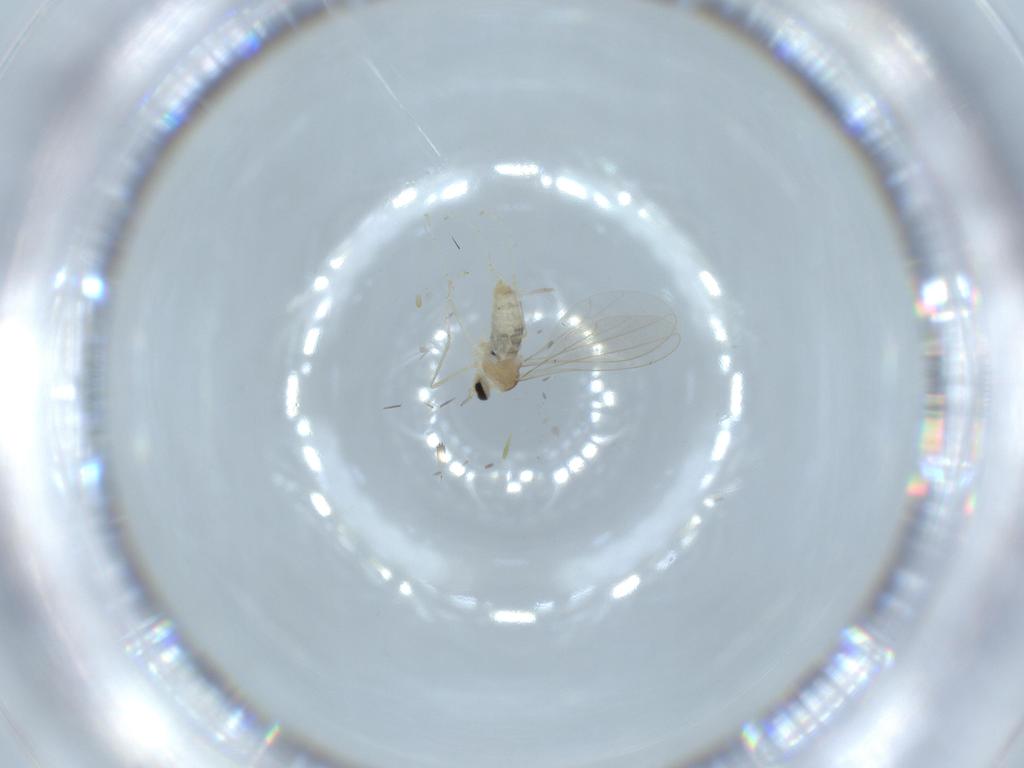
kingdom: Animalia
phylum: Arthropoda
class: Insecta
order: Diptera
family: Cecidomyiidae
